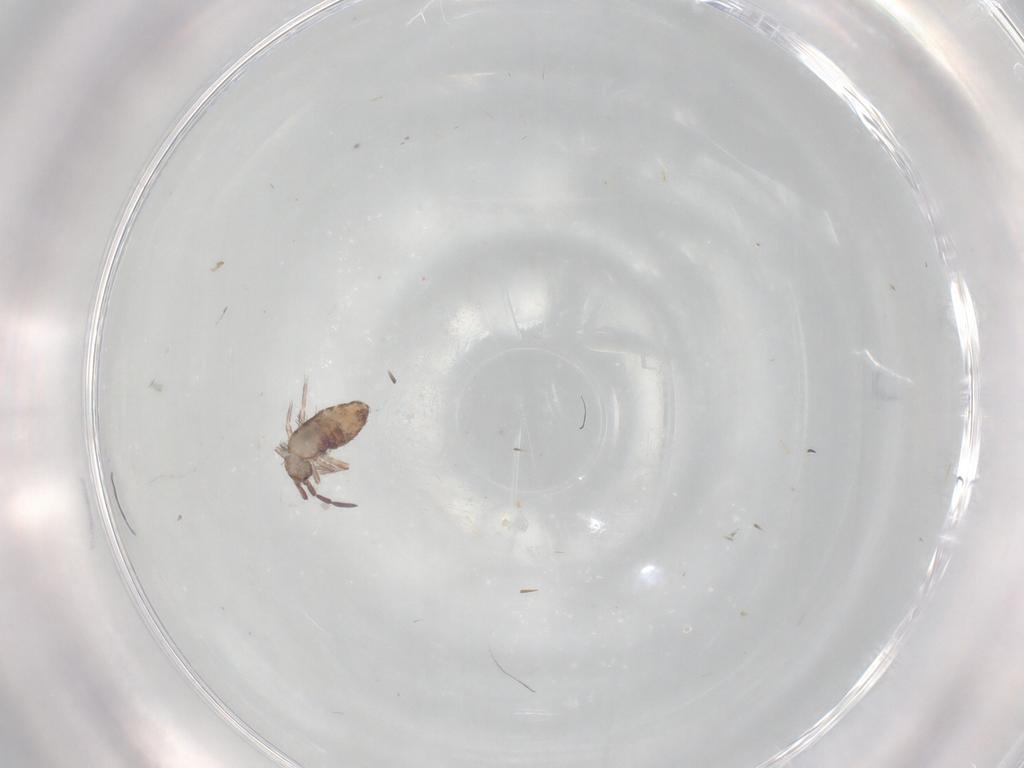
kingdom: Animalia
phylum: Arthropoda
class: Collembola
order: Entomobryomorpha
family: Entomobryidae
